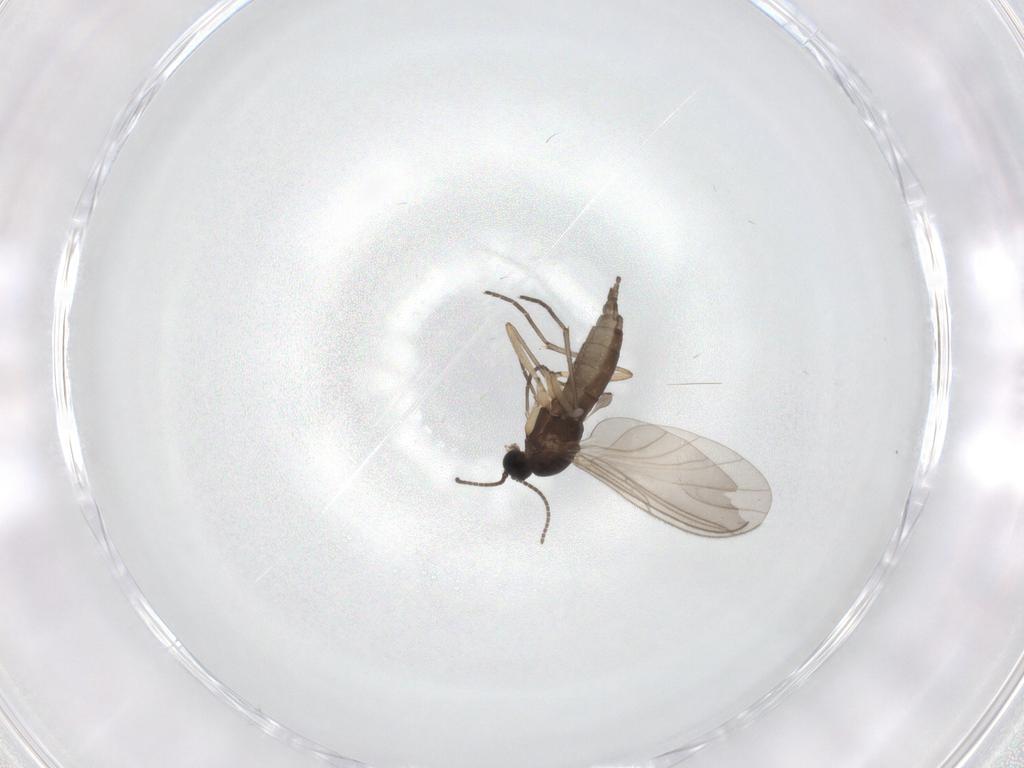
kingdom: Animalia
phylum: Arthropoda
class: Insecta
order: Diptera
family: Sciaridae
